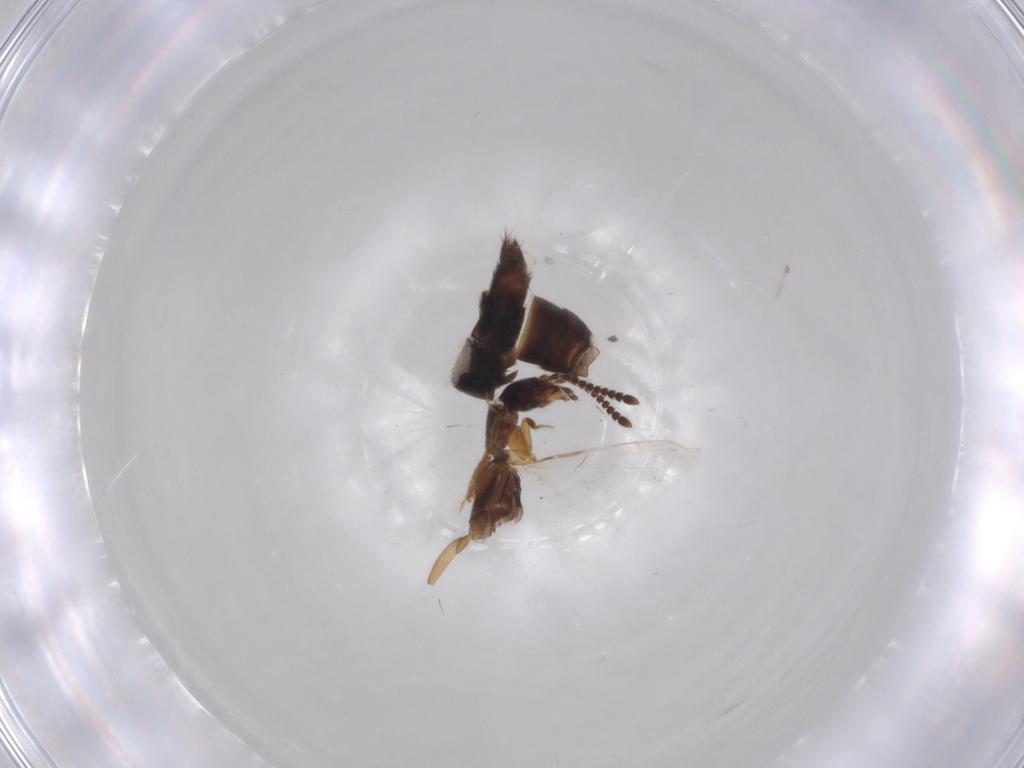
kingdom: Animalia
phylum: Arthropoda
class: Insecta
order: Coleoptera
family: Staphylinidae
